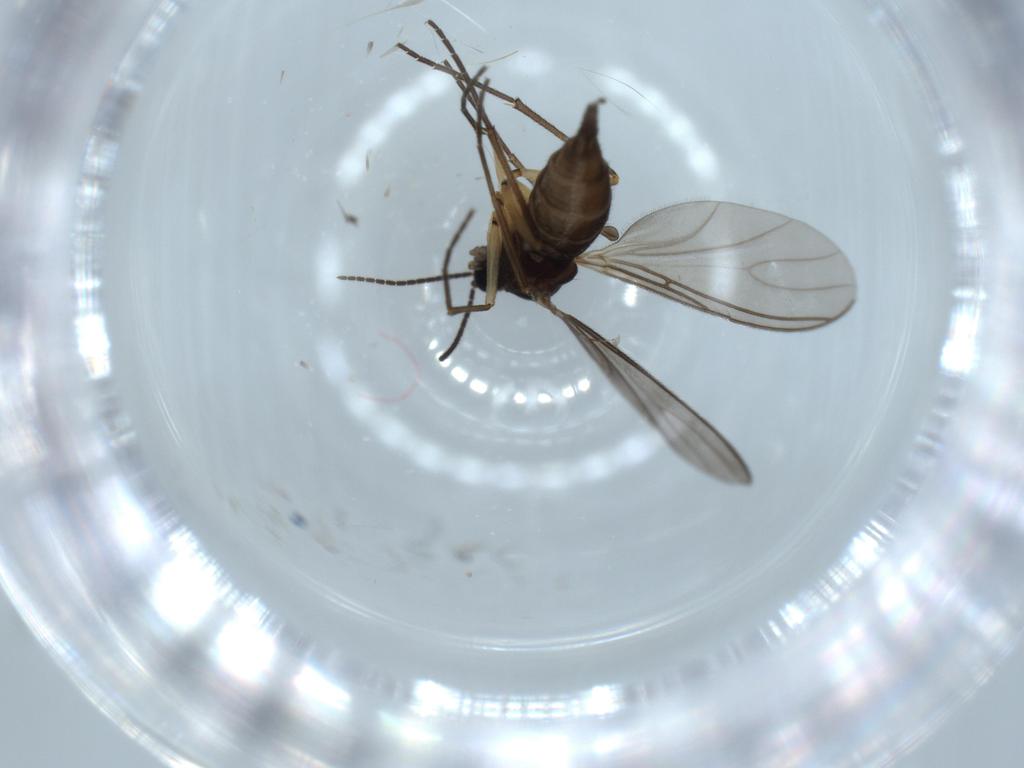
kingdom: Animalia
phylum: Arthropoda
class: Insecta
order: Diptera
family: Sciaridae
